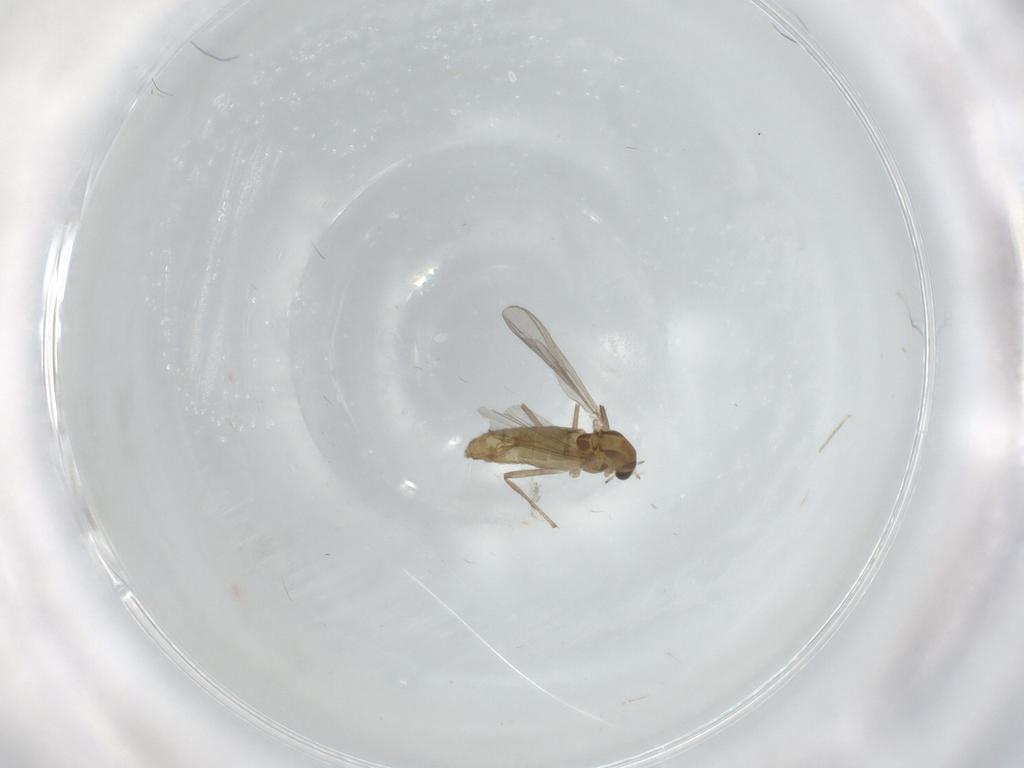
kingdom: Animalia
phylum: Arthropoda
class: Insecta
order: Diptera
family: Chironomidae
